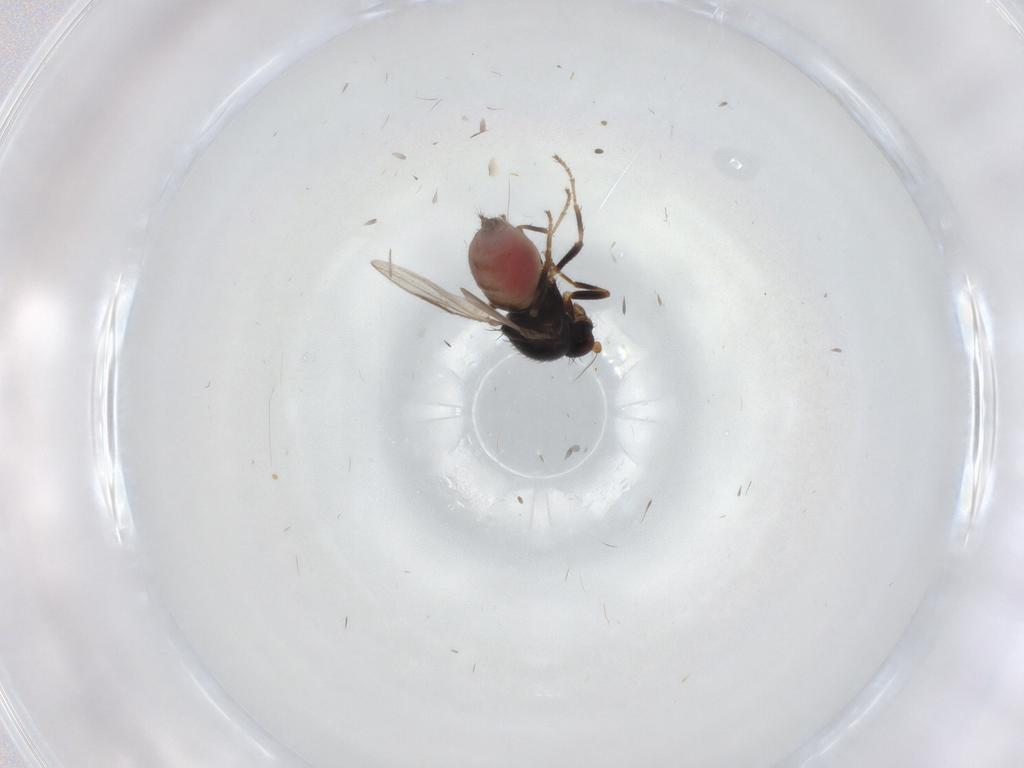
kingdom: Animalia
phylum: Arthropoda
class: Insecta
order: Diptera
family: Sphaeroceridae
